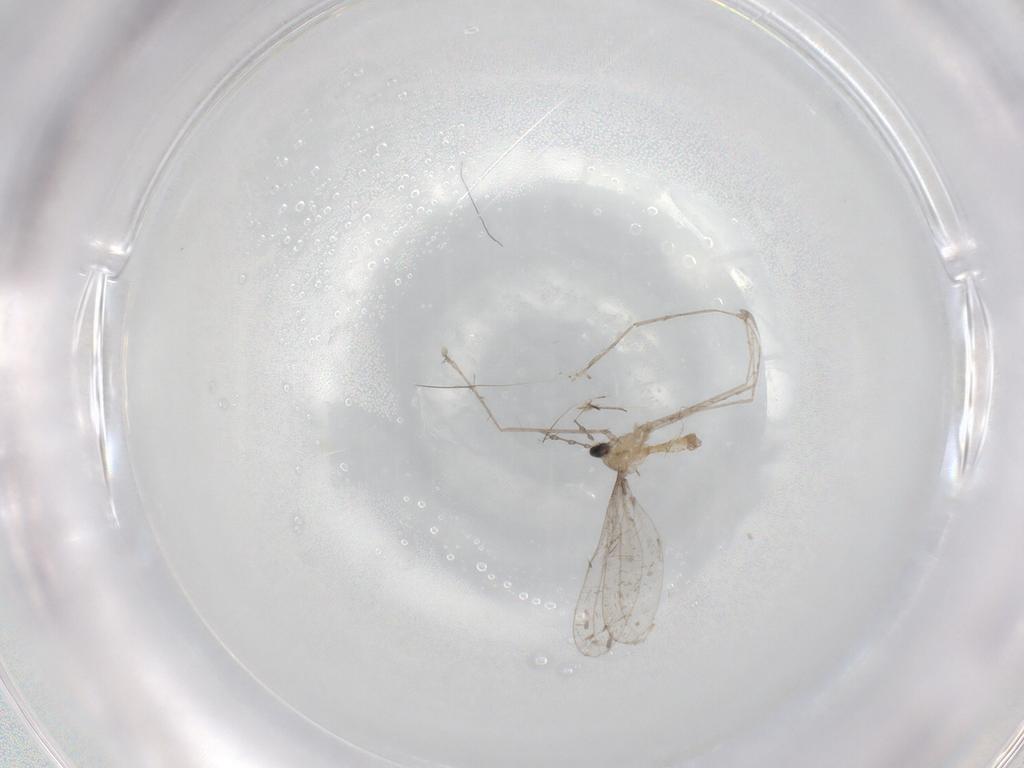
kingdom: Animalia
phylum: Arthropoda
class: Insecta
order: Diptera
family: Cecidomyiidae
